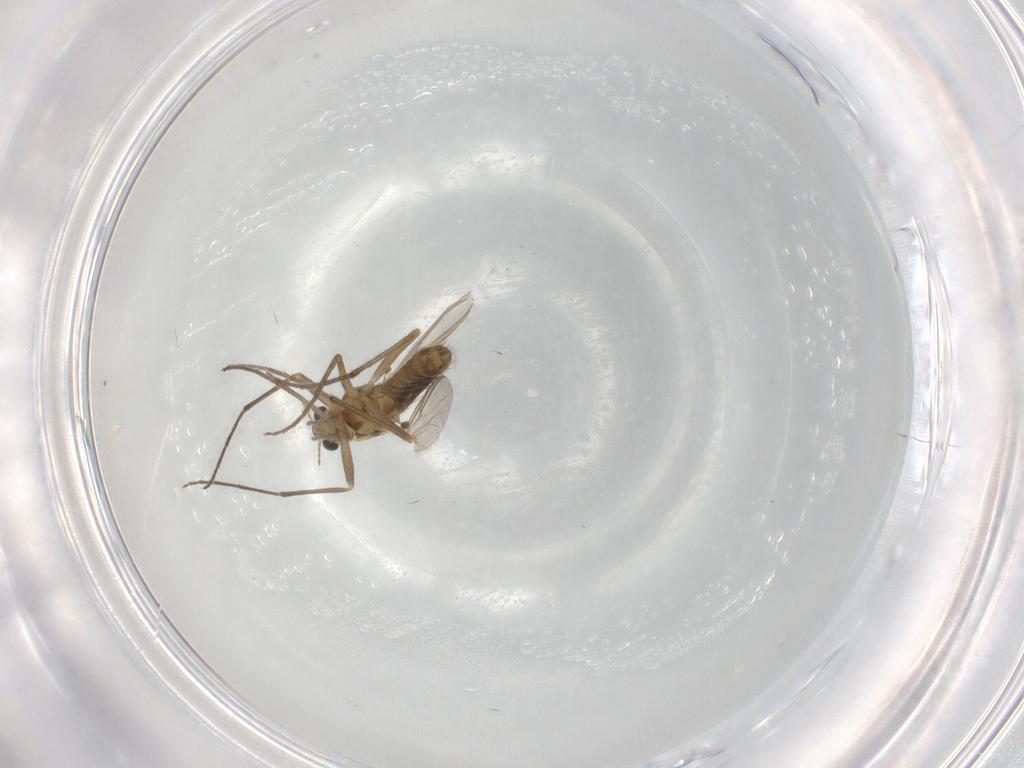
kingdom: Animalia
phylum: Arthropoda
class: Insecta
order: Diptera
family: Chironomidae
